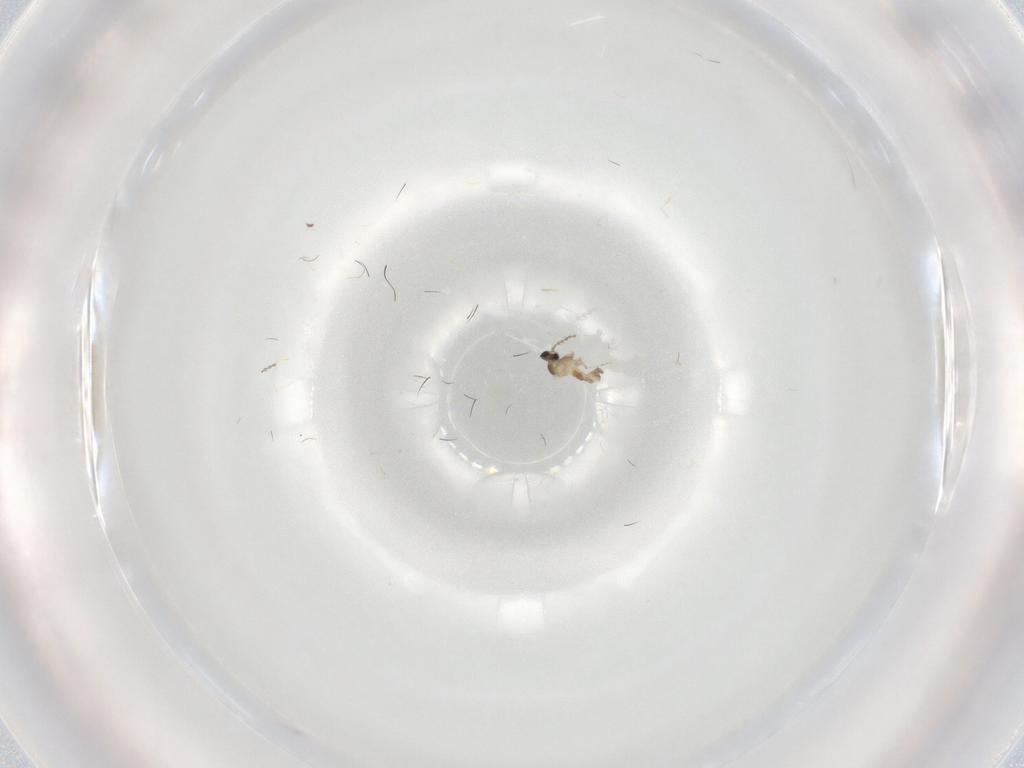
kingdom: Animalia
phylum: Arthropoda
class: Insecta
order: Diptera
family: Cecidomyiidae
